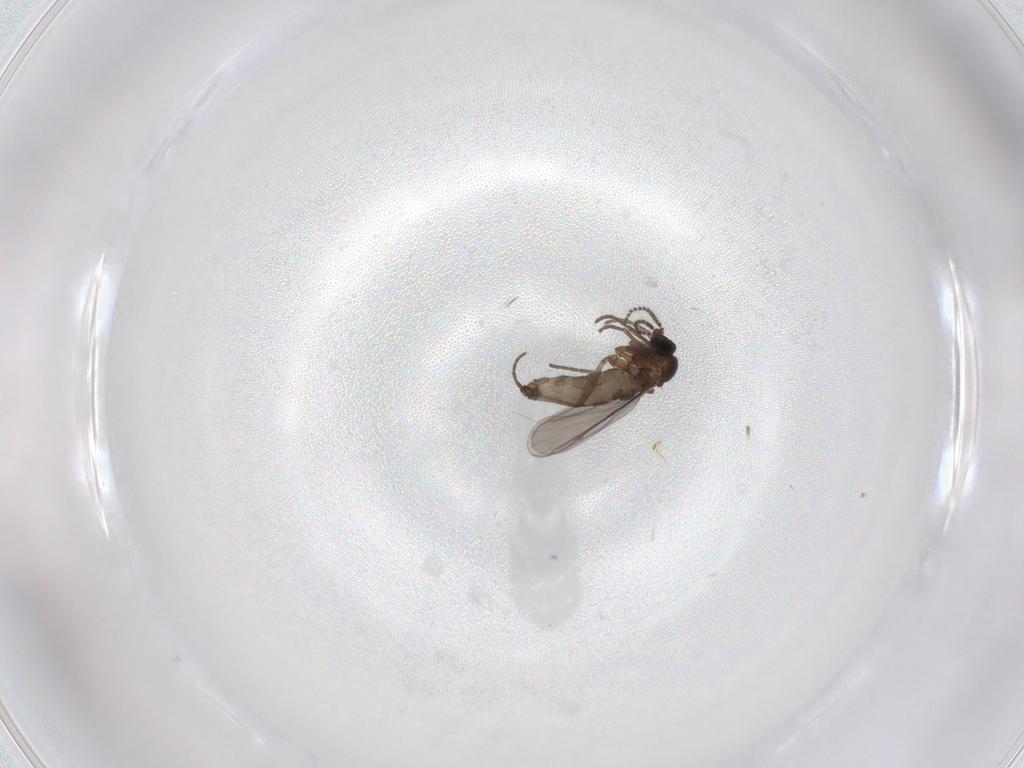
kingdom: Animalia
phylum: Arthropoda
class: Insecta
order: Diptera
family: Sciaridae
